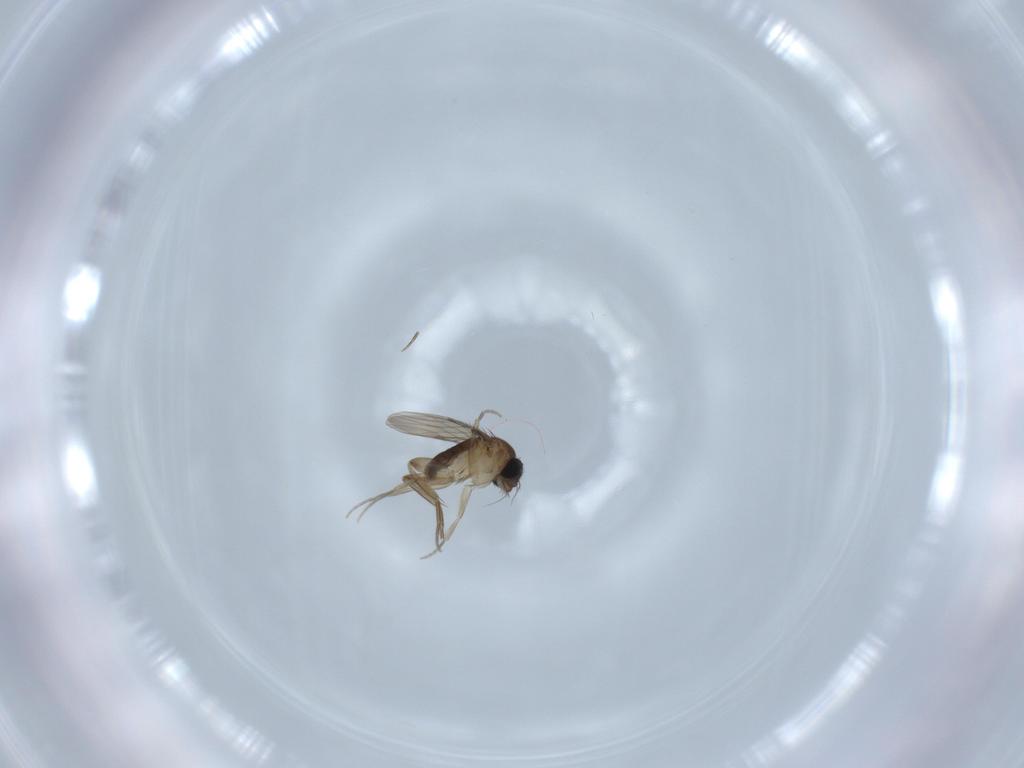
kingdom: Animalia
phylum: Arthropoda
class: Insecta
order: Diptera
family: Phoridae
